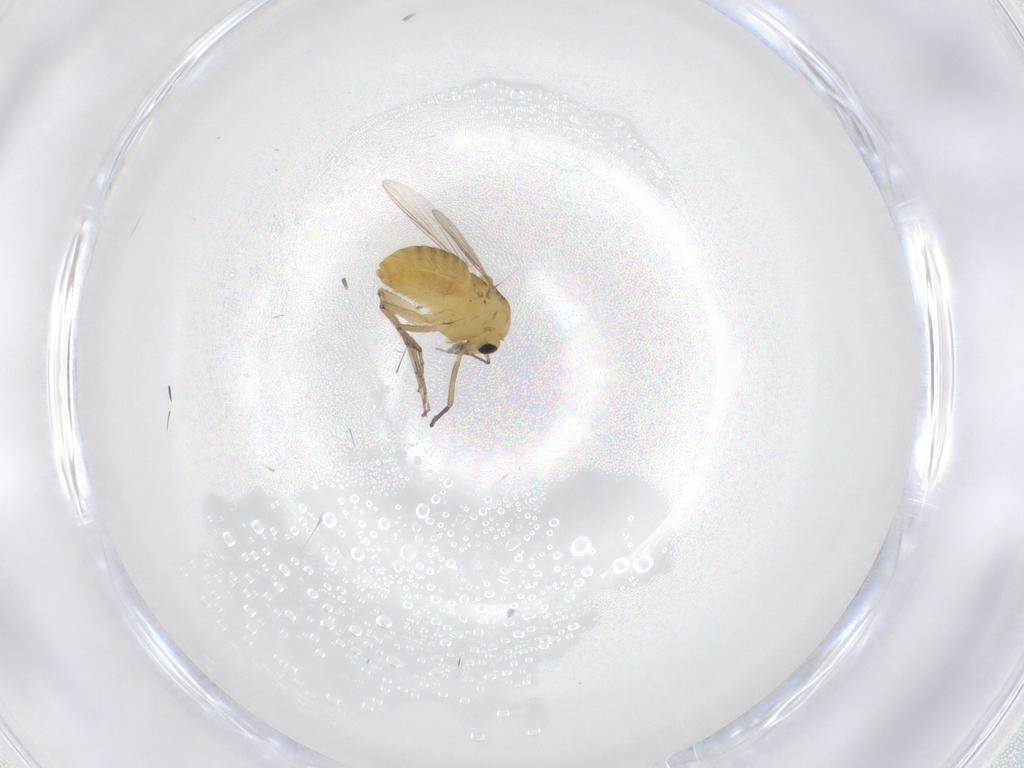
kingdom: Animalia
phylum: Arthropoda
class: Insecta
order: Diptera
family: Chironomidae
